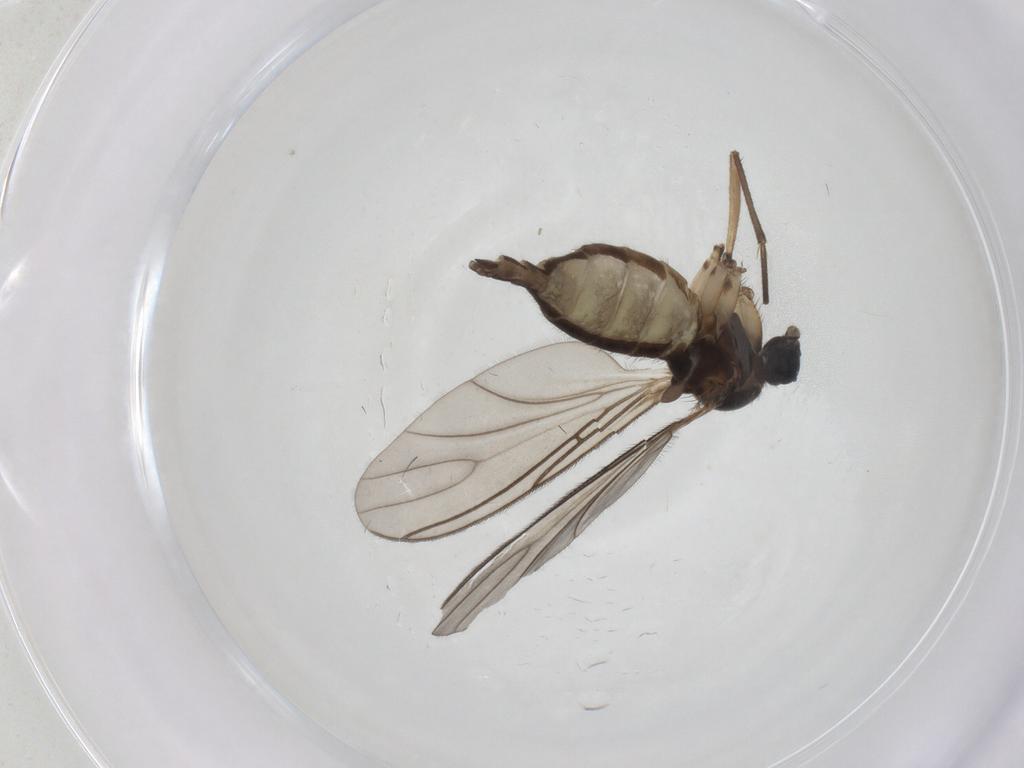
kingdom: Animalia
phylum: Arthropoda
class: Insecta
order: Diptera
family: Sciaridae
